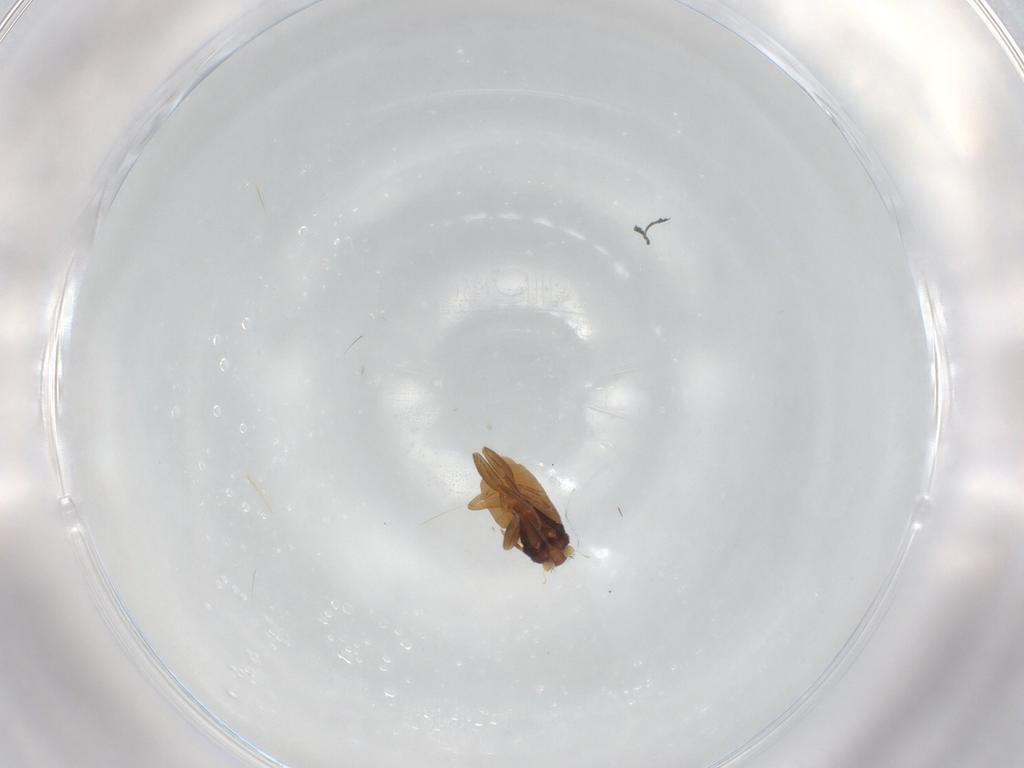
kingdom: Animalia
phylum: Arthropoda
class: Insecta
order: Diptera
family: Phoridae
